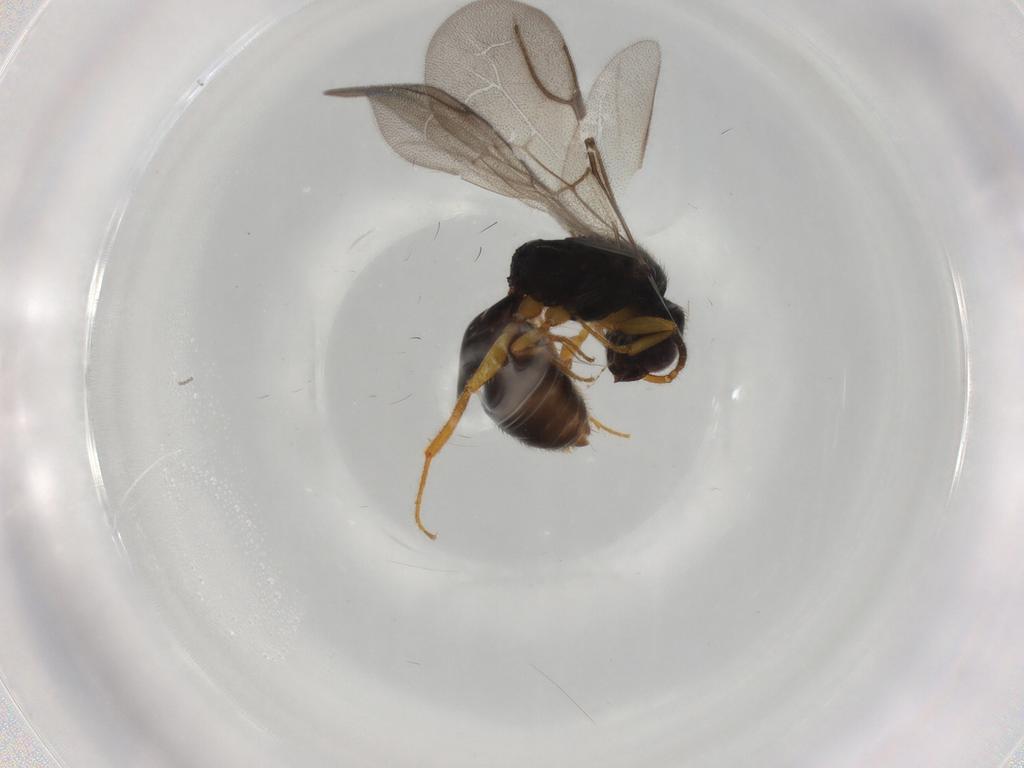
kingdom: Animalia
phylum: Arthropoda
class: Insecta
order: Hymenoptera
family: Bethylidae
